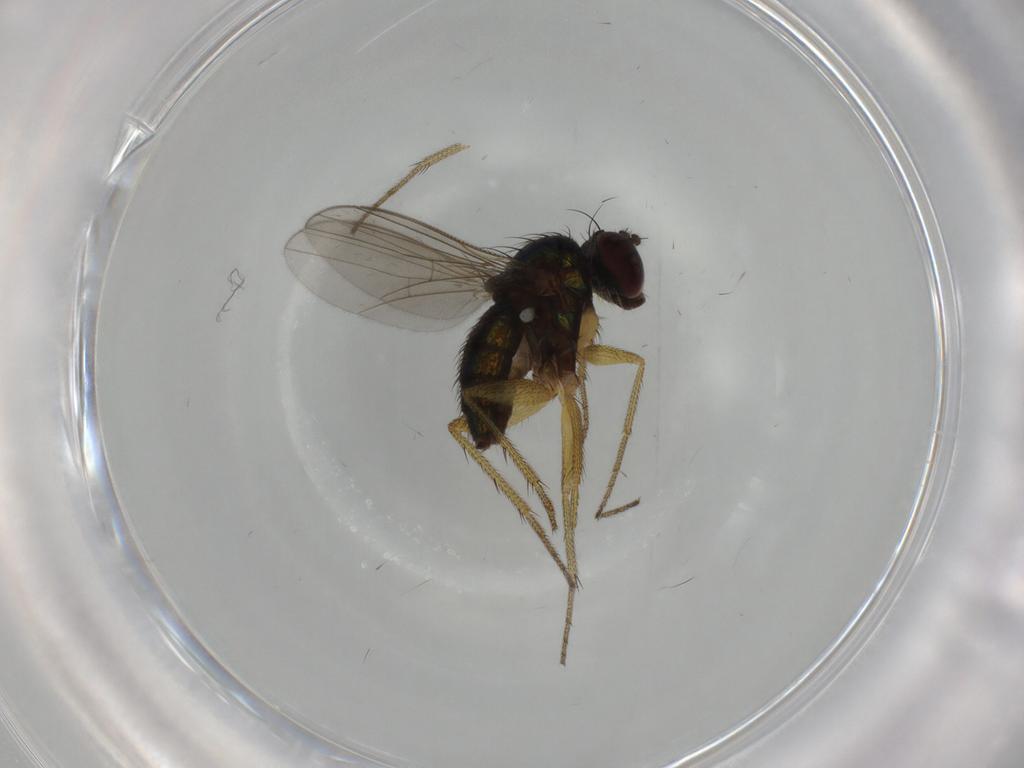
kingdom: Animalia
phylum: Arthropoda
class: Insecta
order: Diptera
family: Dolichopodidae
